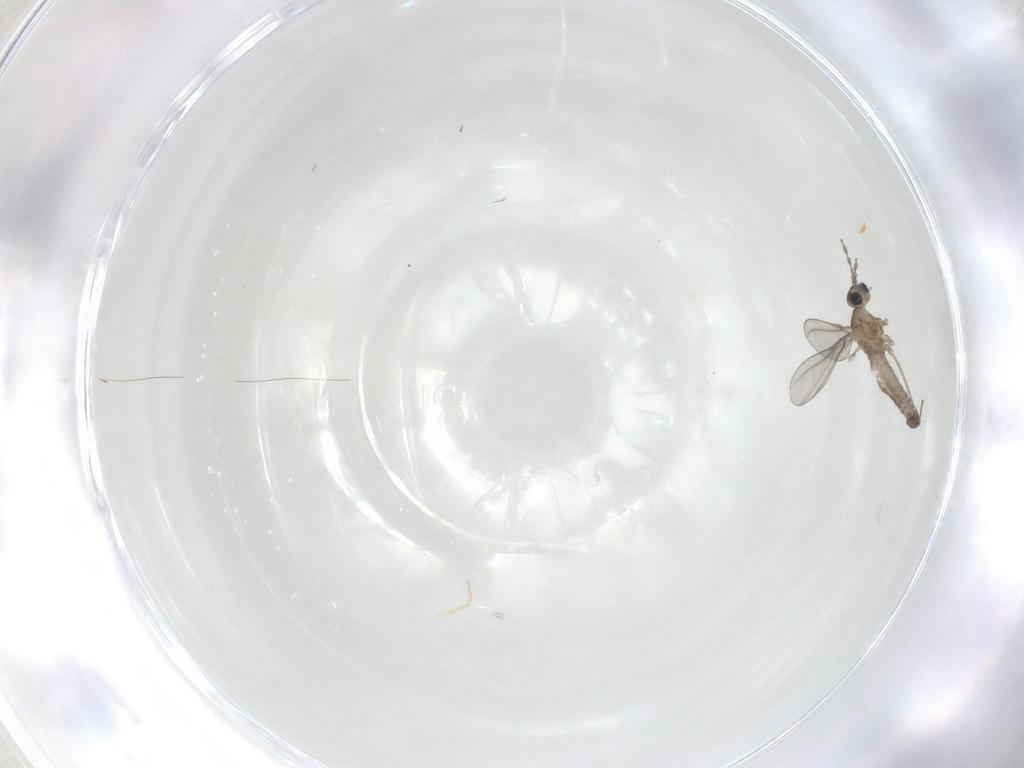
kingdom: Animalia
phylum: Arthropoda
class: Insecta
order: Diptera
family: Cecidomyiidae
